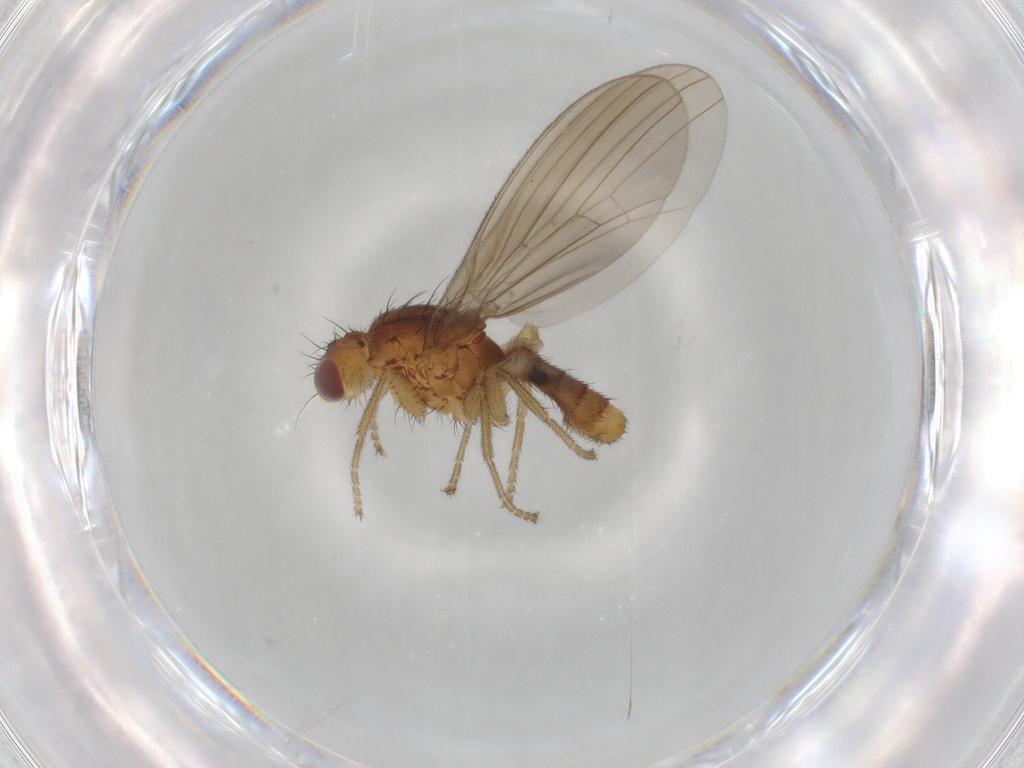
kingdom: Animalia
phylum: Arthropoda
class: Insecta
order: Diptera
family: Natalimyzidae
